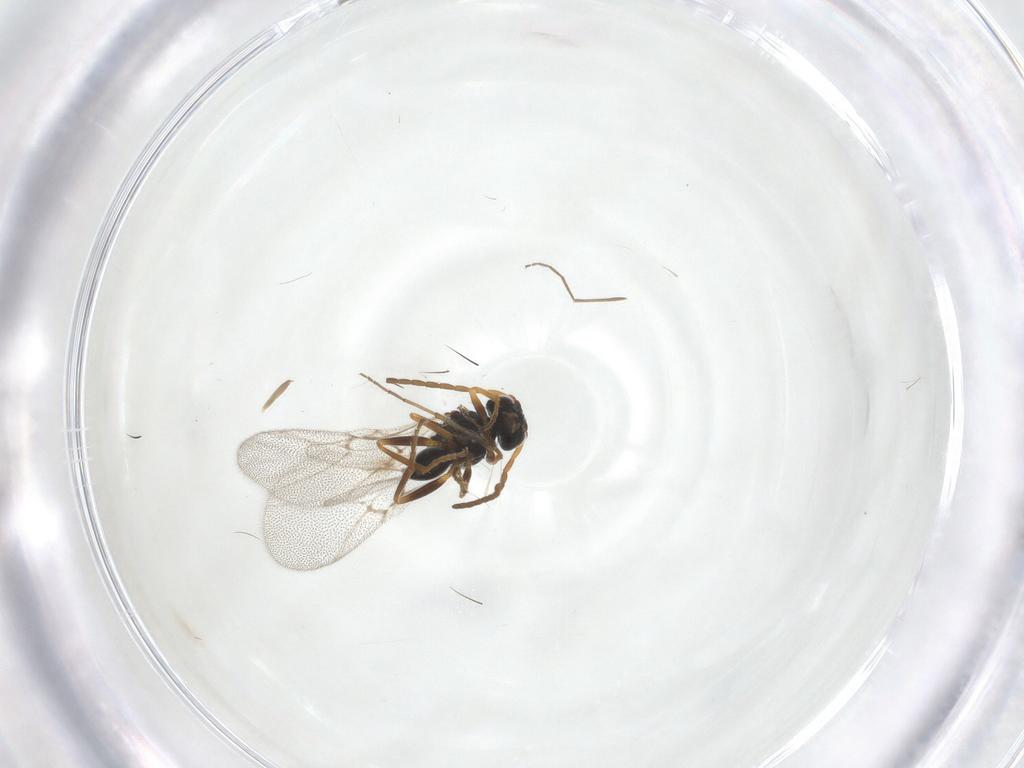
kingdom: Animalia
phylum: Arthropoda
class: Insecta
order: Hymenoptera
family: Cynipidae
